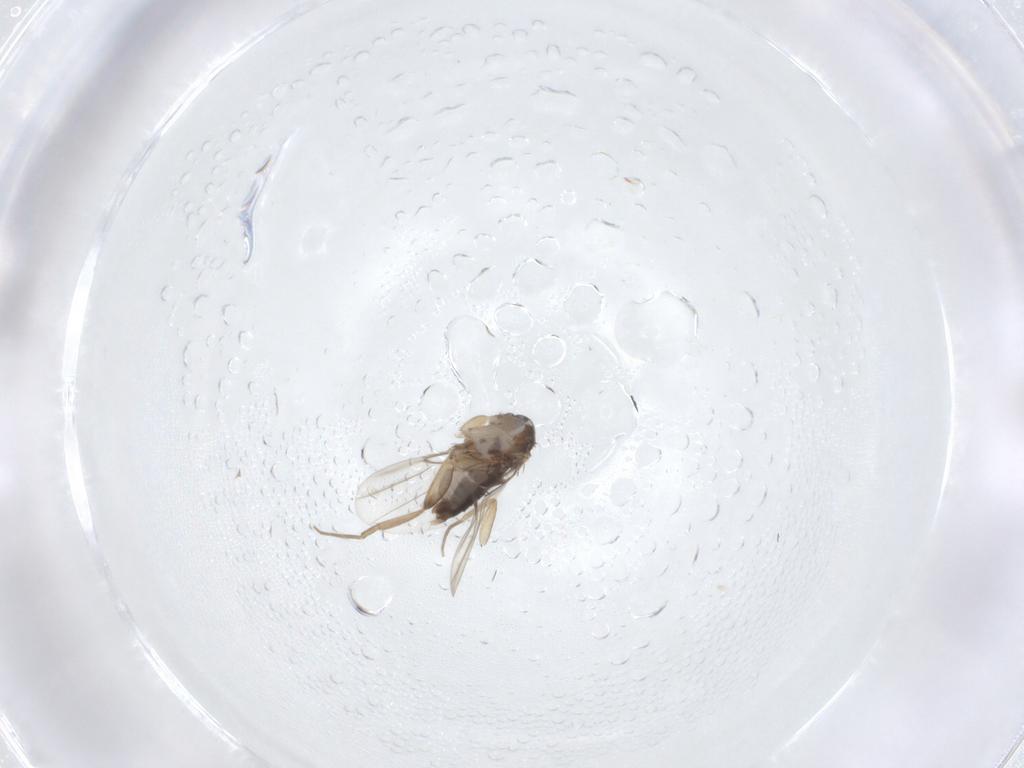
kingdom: Animalia
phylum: Arthropoda
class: Insecta
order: Diptera
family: Phoridae
